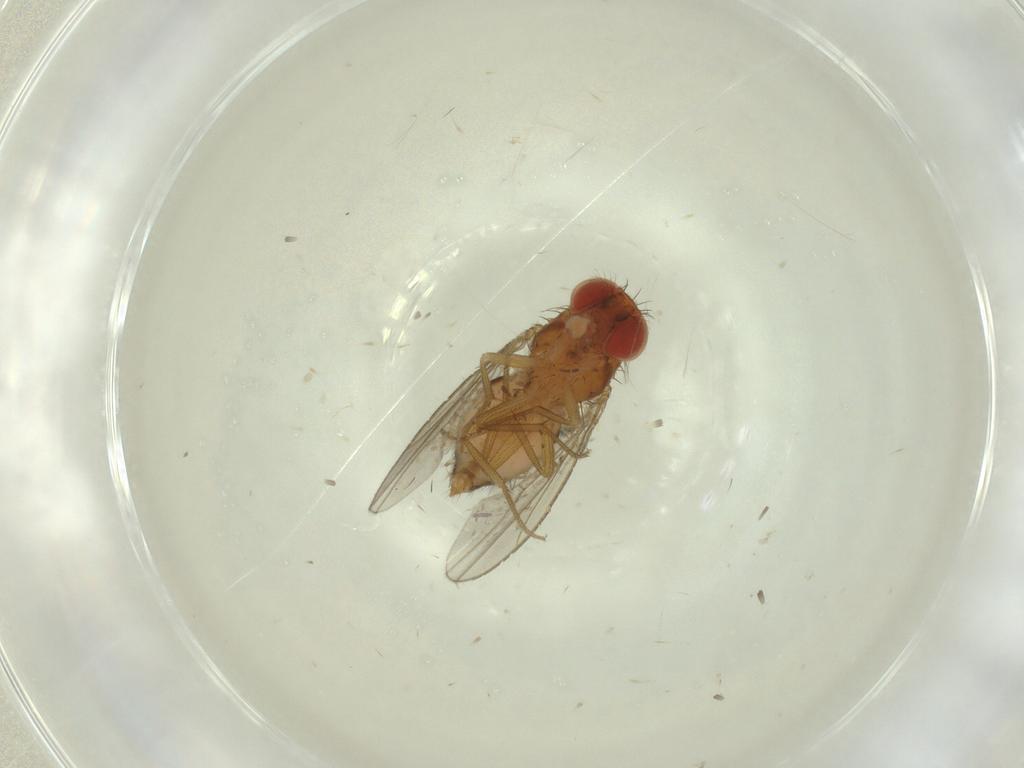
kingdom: Animalia
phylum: Arthropoda
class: Insecta
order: Diptera
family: Drosophilidae
